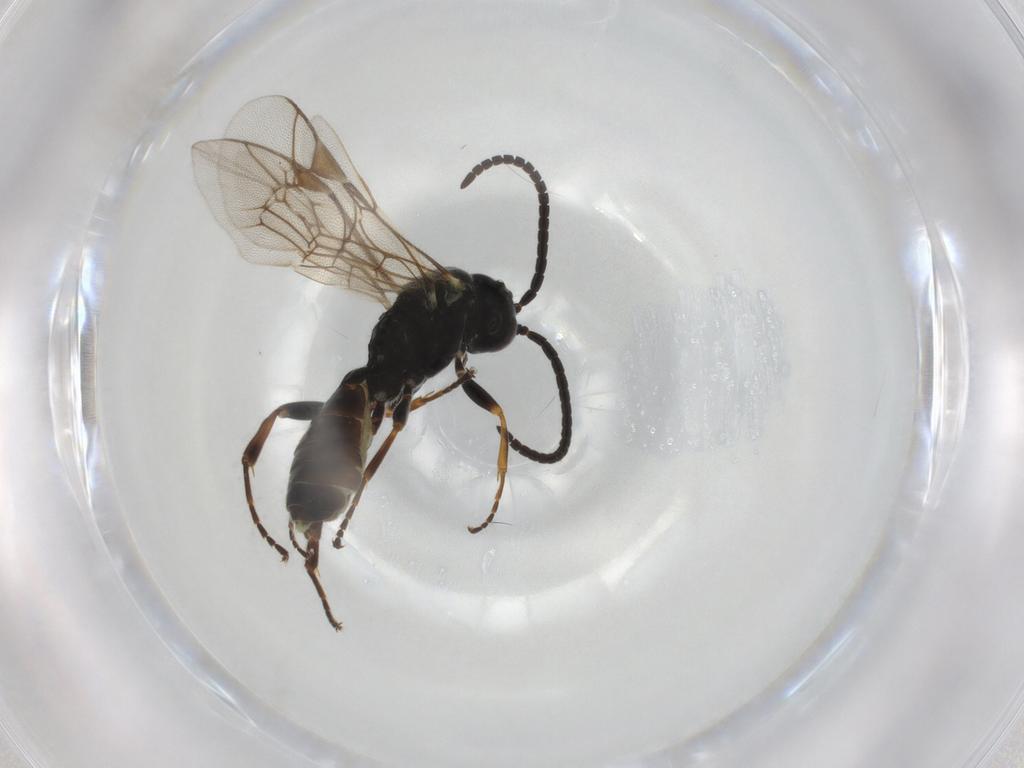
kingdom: Animalia
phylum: Arthropoda
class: Insecta
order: Hymenoptera
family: Ichneumonidae
